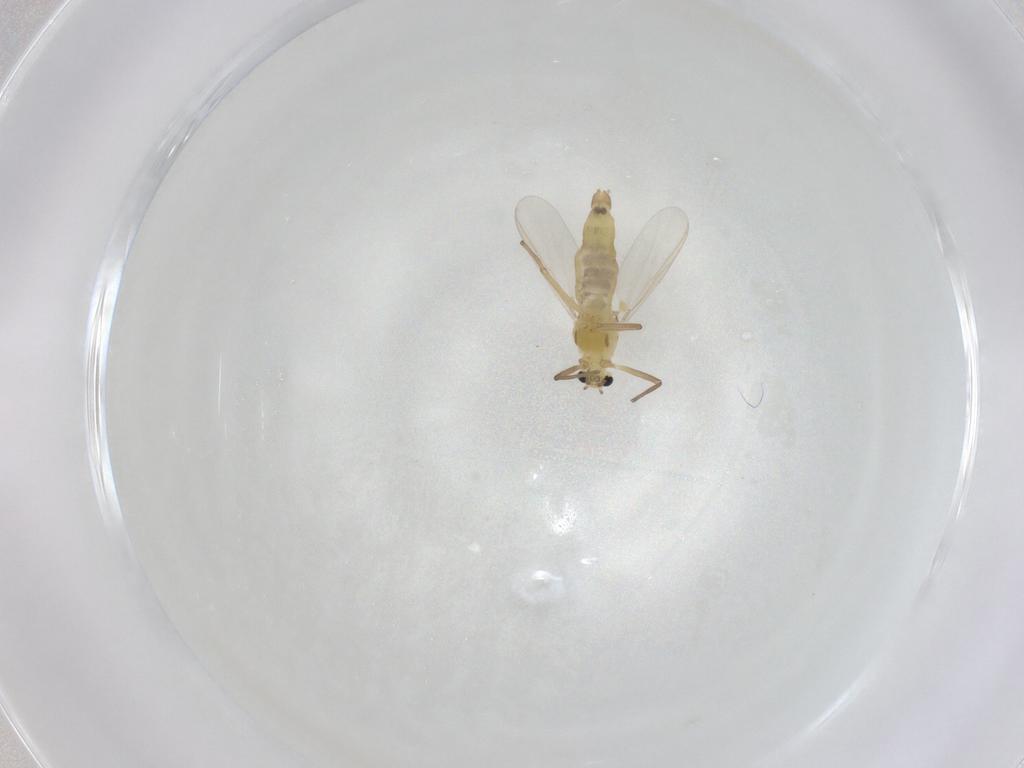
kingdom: Animalia
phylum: Arthropoda
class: Insecta
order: Diptera
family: Chironomidae
